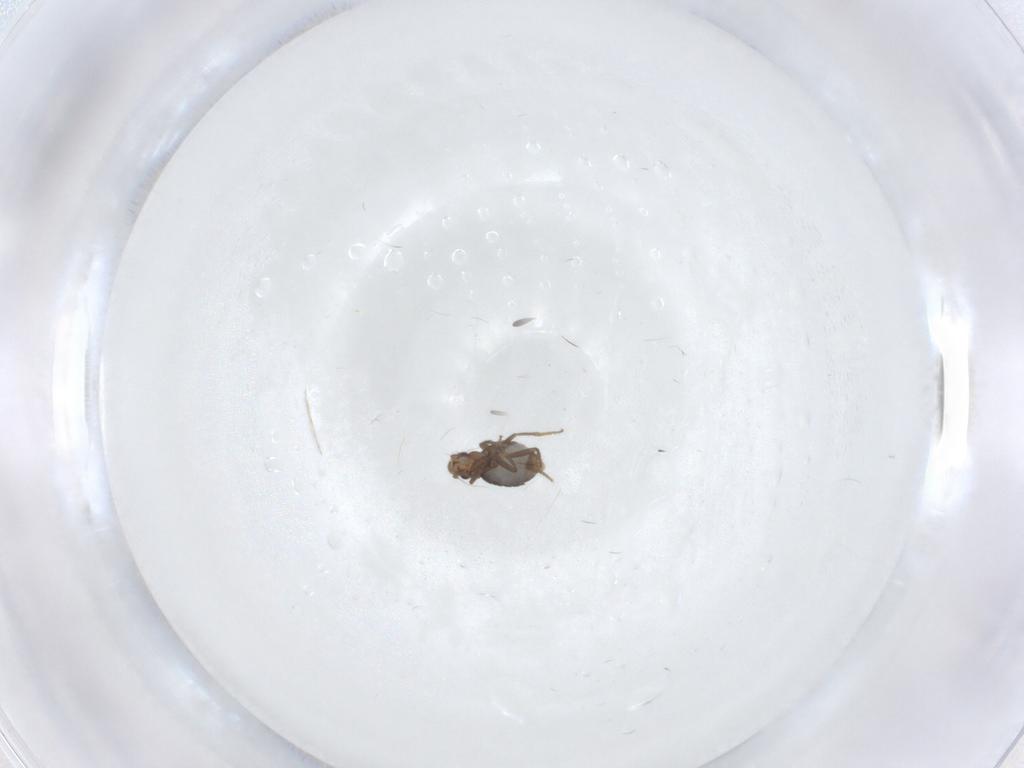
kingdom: Animalia
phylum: Arthropoda
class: Insecta
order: Diptera
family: Phoridae
